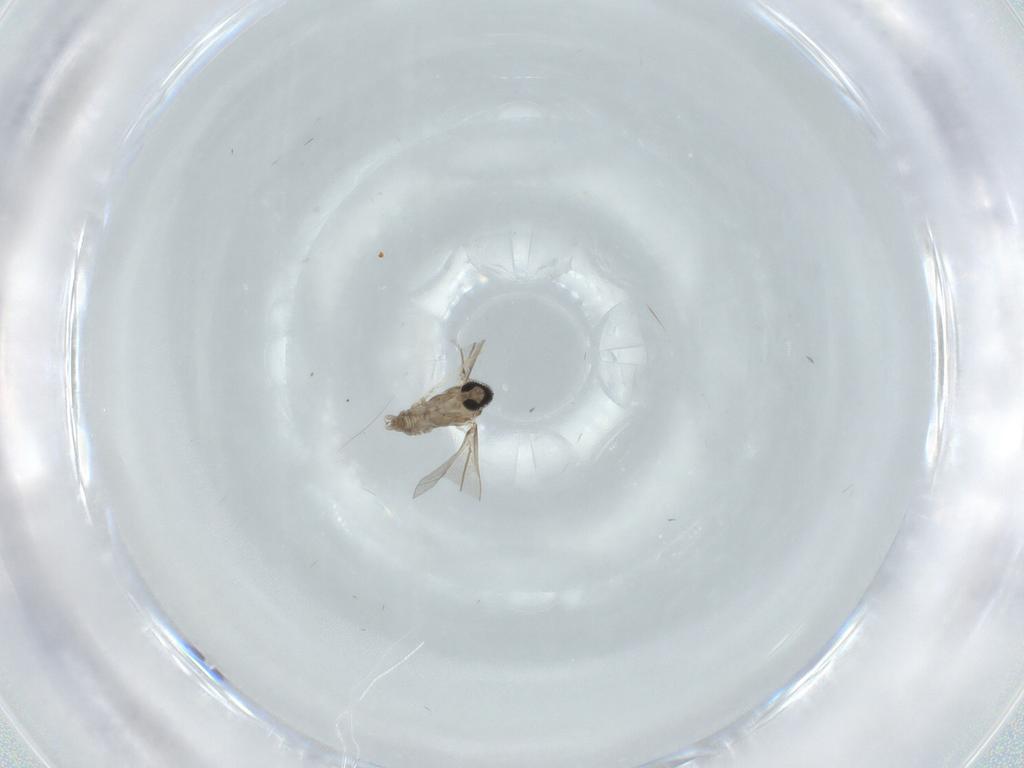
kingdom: Animalia
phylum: Arthropoda
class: Insecta
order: Diptera
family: Cecidomyiidae
